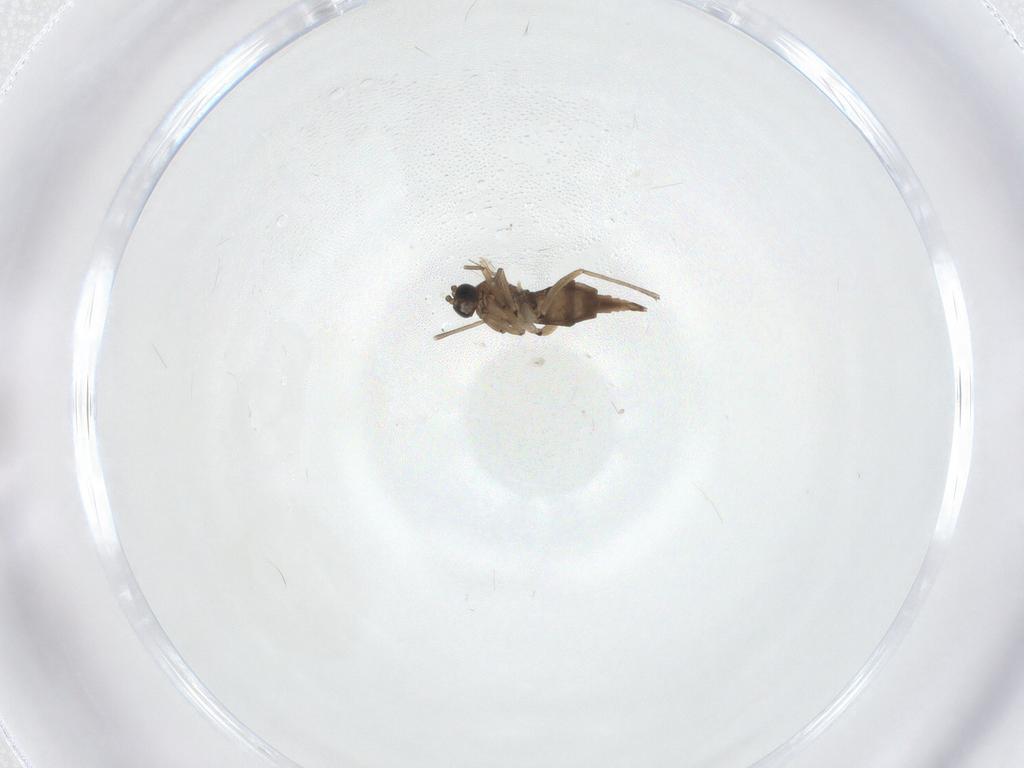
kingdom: Animalia
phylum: Arthropoda
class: Insecta
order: Diptera
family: Sciaridae
